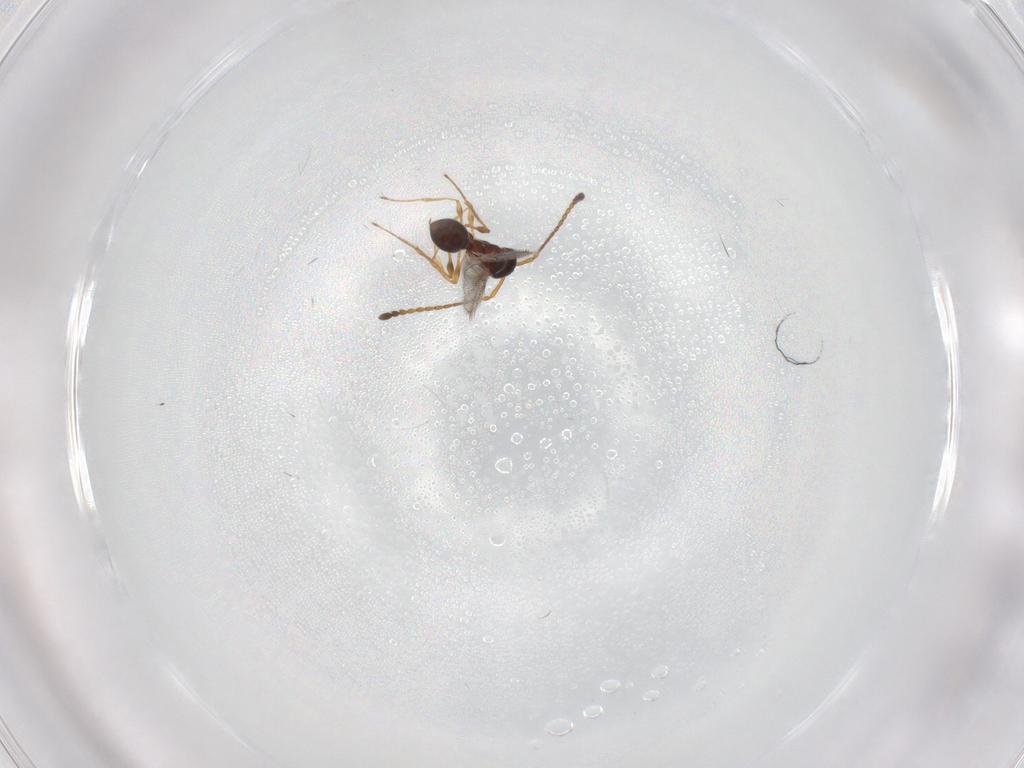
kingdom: Animalia
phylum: Arthropoda
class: Insecta
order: Hymenoptera
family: Diapriidae
